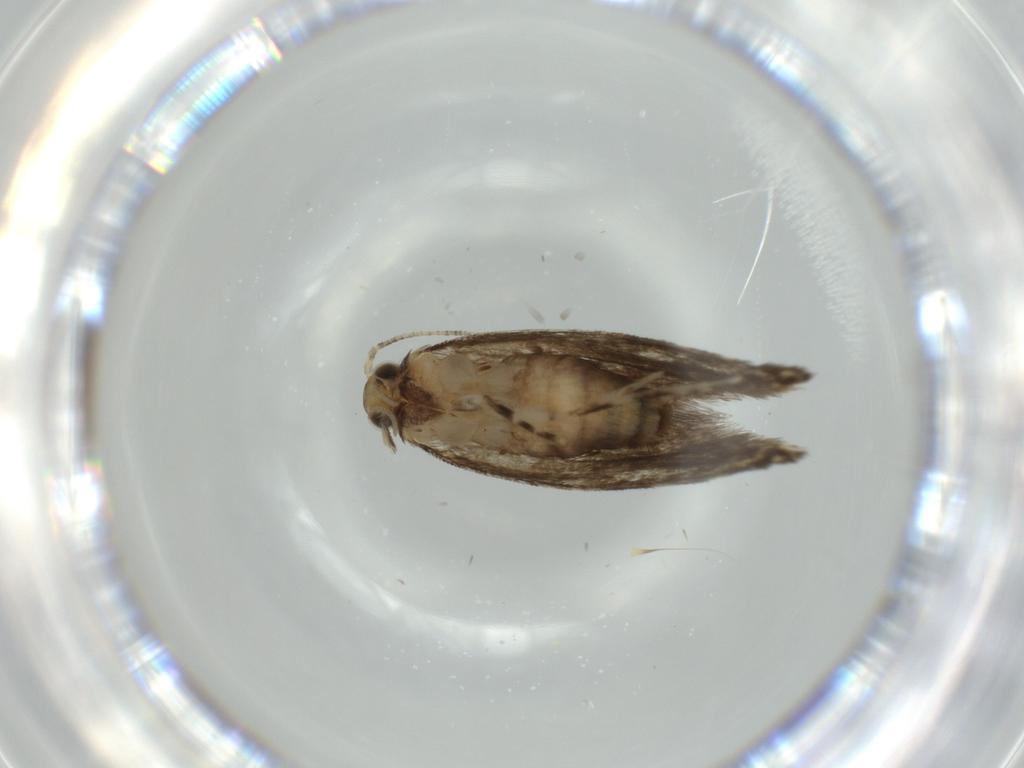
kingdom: Animalia
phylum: Arthropoda
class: Insecta
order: Lepidoptera
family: Tineidae
